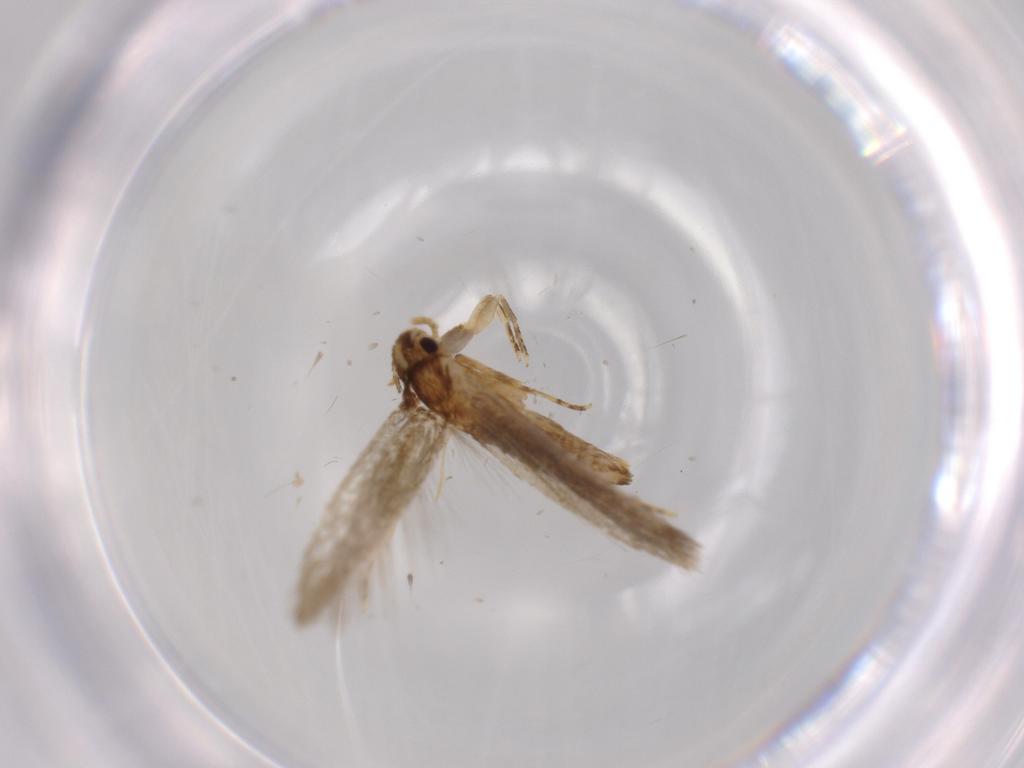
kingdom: Animalia
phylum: Arthropoda
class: Insecta
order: Lepidoptera
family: Tineidae
